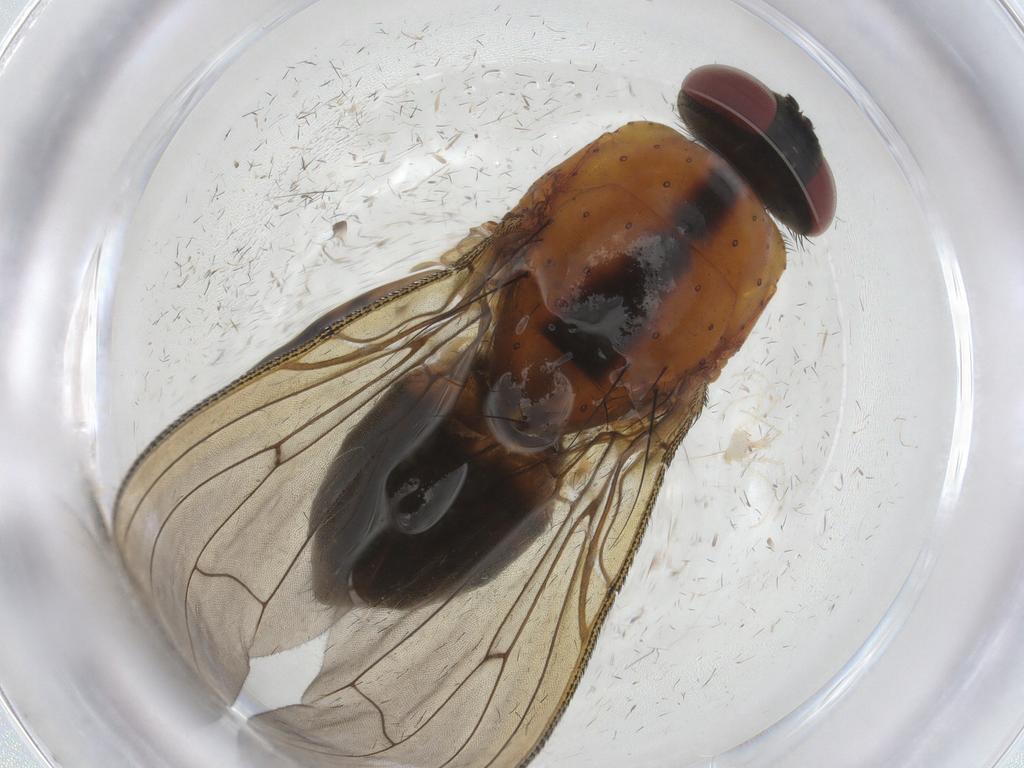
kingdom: Animalia
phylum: Arthropoda
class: Insecta
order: Diptera
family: Muscidae
